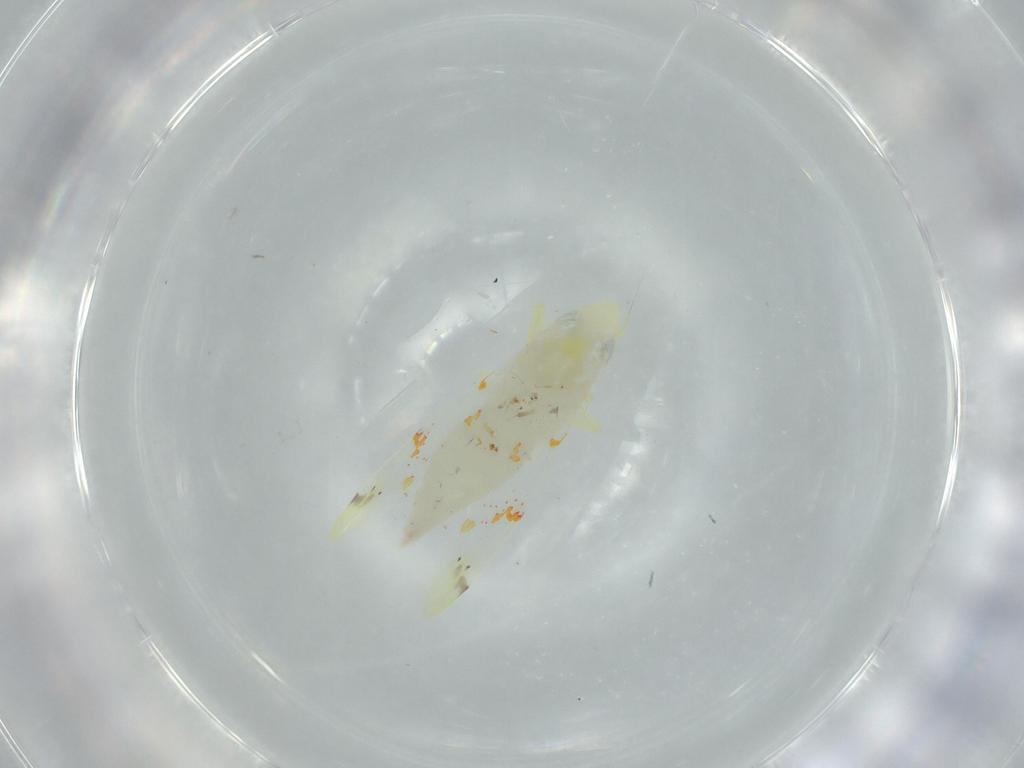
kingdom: Animalia
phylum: Arthropoda
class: Insecta
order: Hemiptera
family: Cicadellidae
